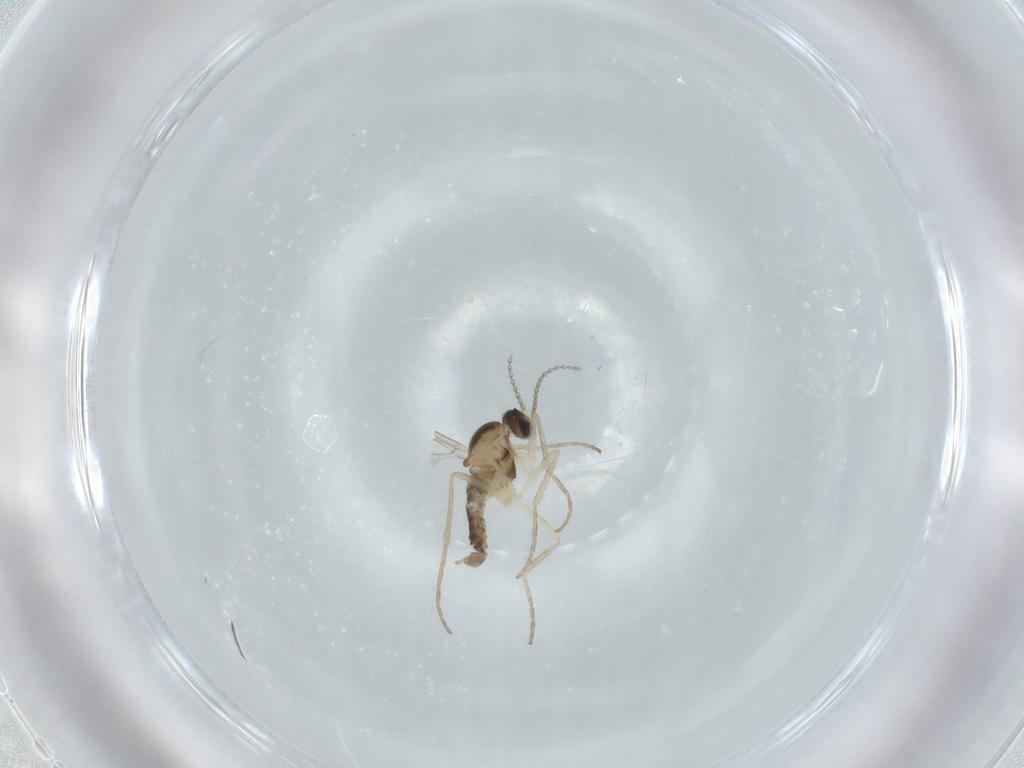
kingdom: Animalia
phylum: Arthropoda
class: Insecta
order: Diptera
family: Cecidomyiidae
